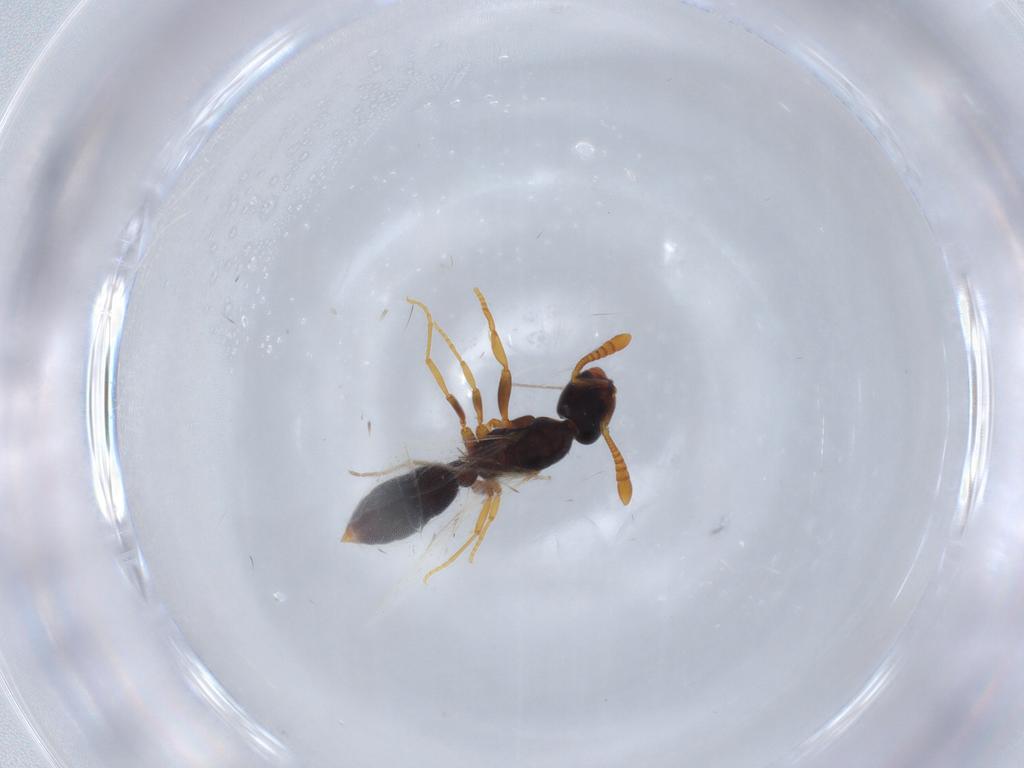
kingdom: Animalia
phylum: Arthropoda
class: Insecta
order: Hymenoptera
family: Formicidae
